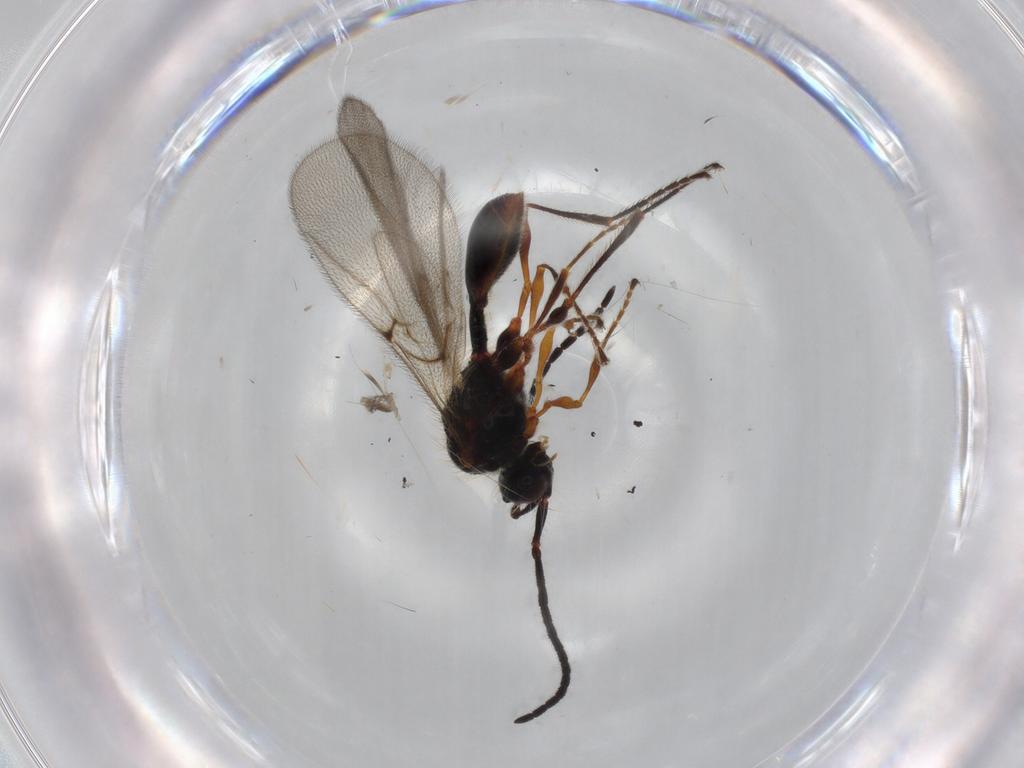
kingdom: Animalia
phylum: Arthropoda
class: Insecta
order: Hymenoptera
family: Diapriidae
